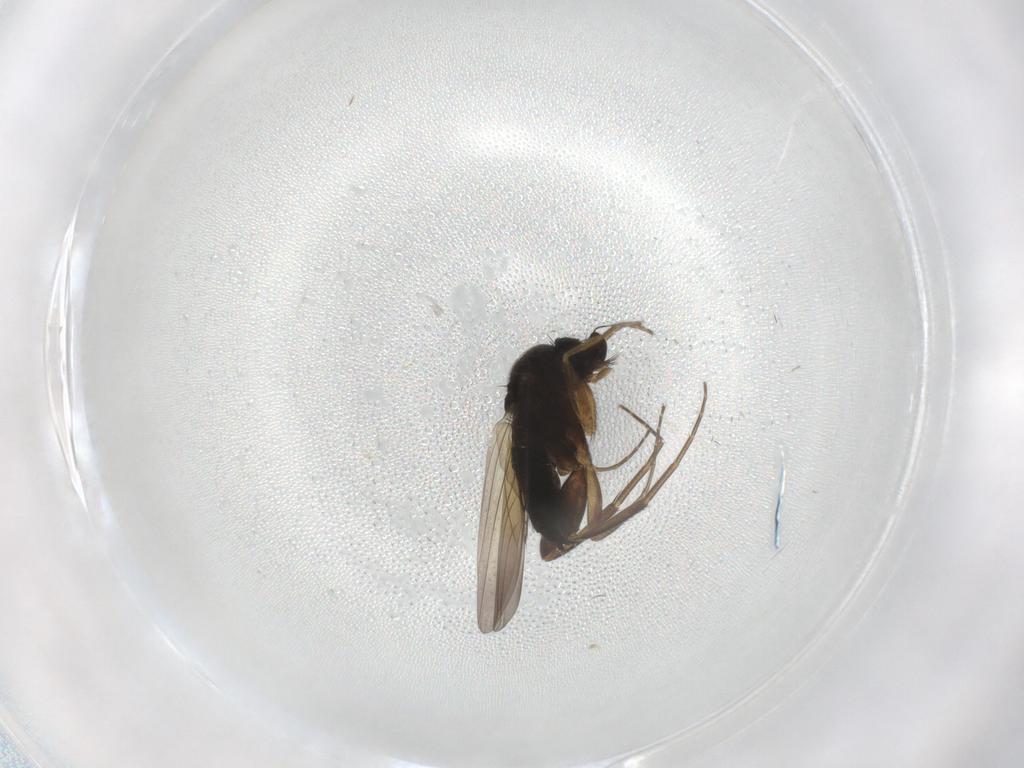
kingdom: Animalia
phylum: Arthropoda
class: Insecta
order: Diptera
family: Phoridae
